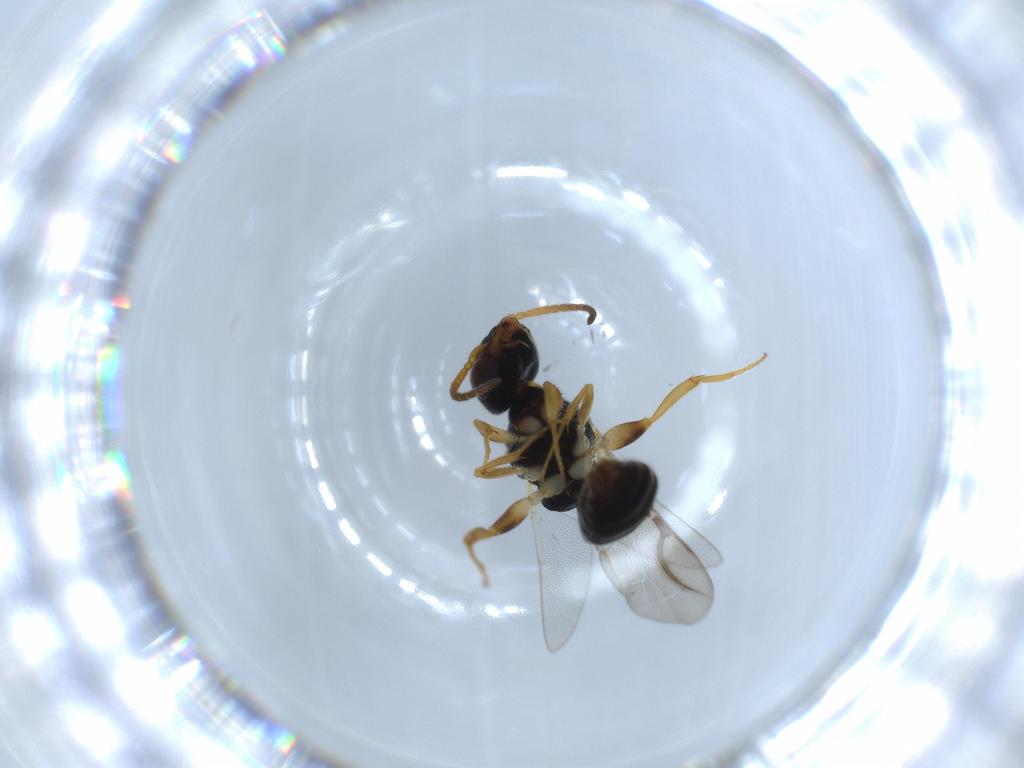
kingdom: Animalia
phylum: Arthropoda
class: Insecta
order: Hymenoptera
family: Bethylidae
